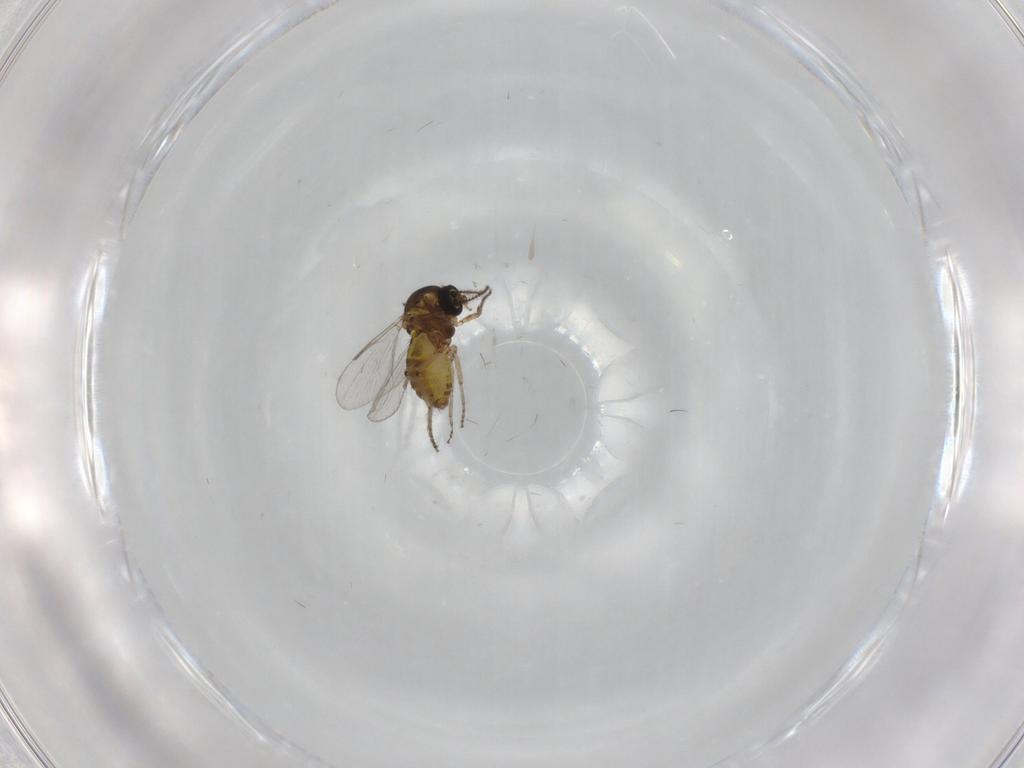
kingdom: Animalia
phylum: Arthropoda
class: Insecta
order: Diptera
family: Ceratopogonidae
